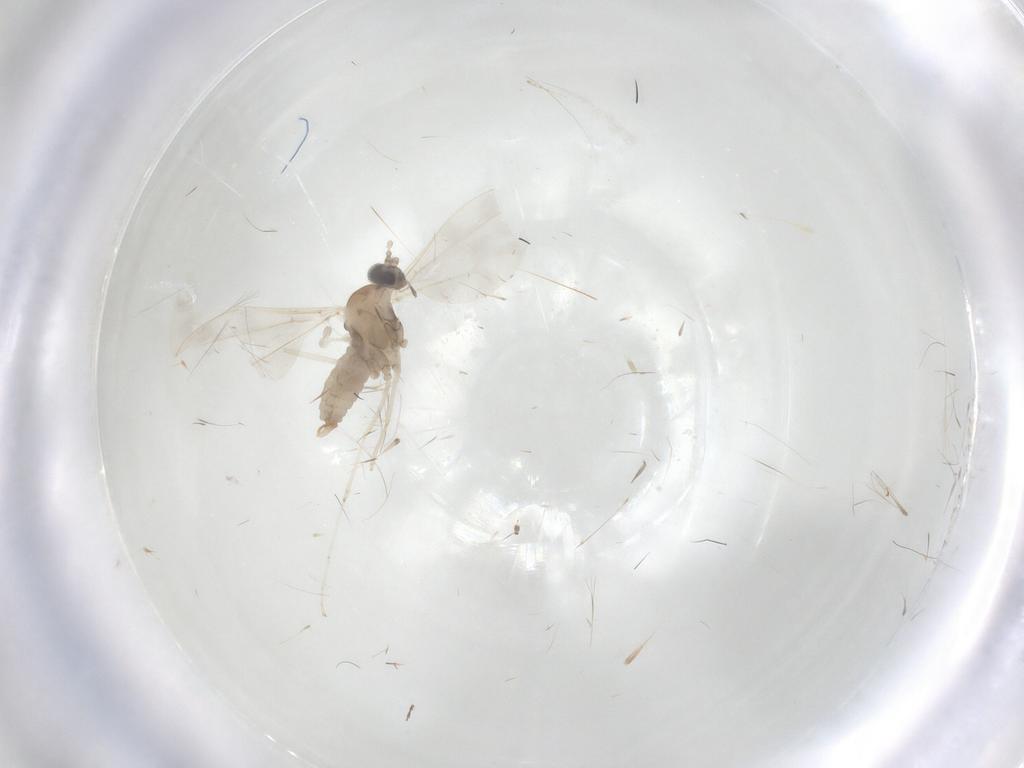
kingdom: Animalia
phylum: Arthropoda
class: Insecta
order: Diptera
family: Cecidomyiidae
